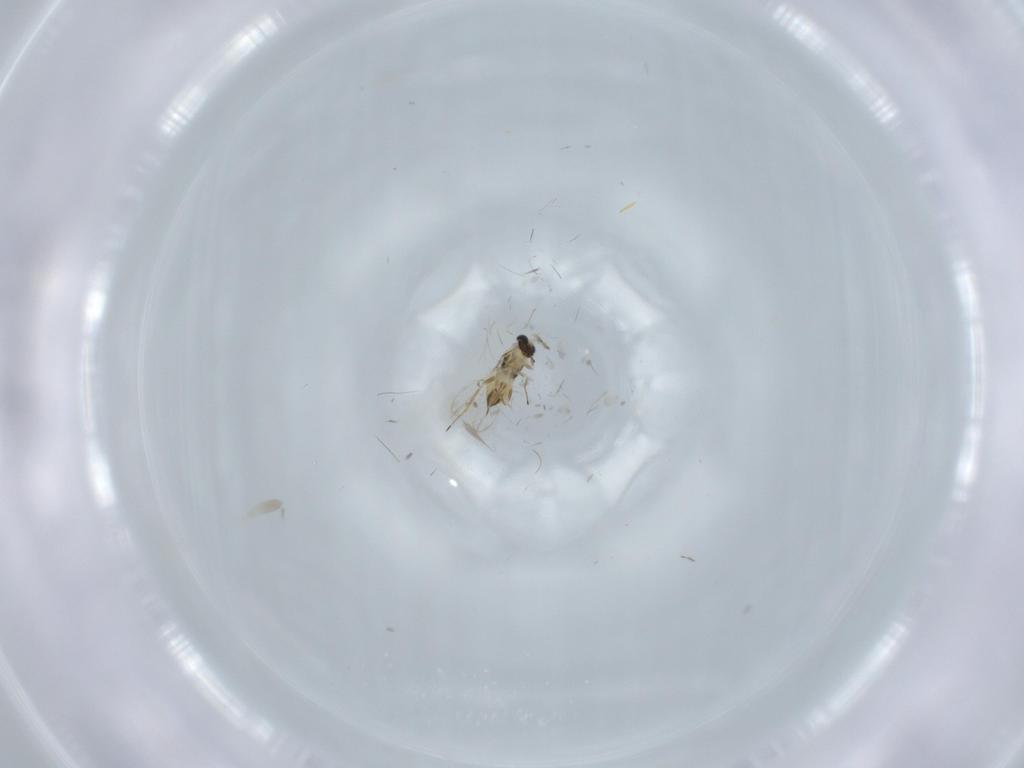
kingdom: Animalia
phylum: Arthropoda
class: Insecta
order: Hymenoptera
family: Trichogrammatidae
